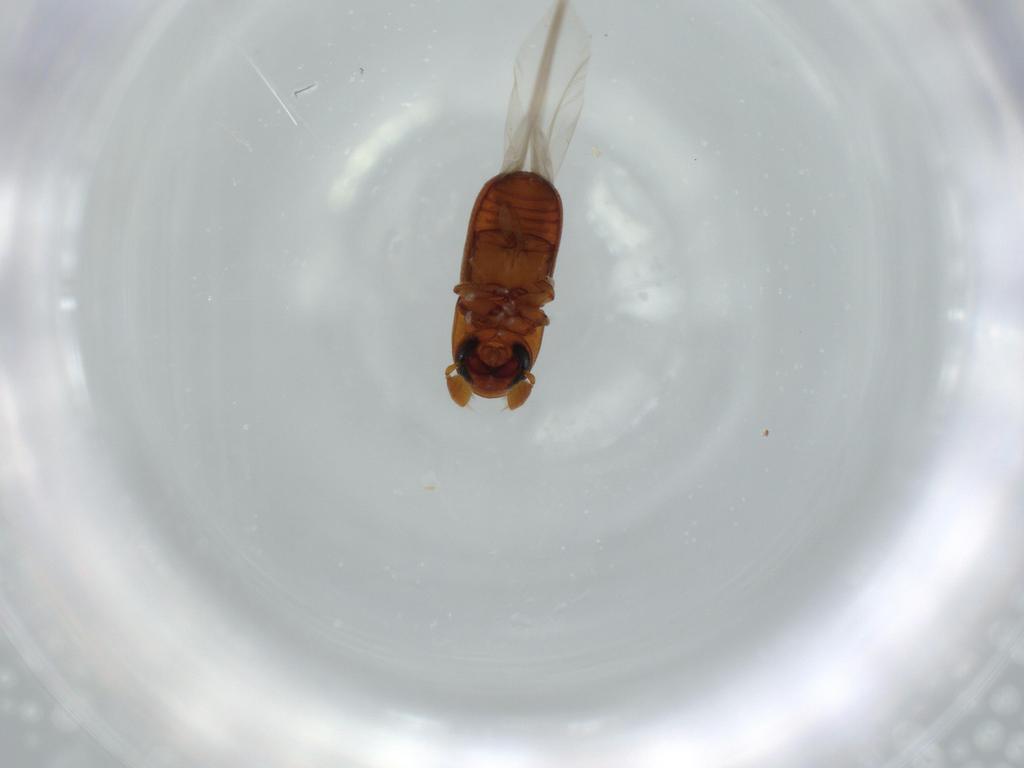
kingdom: Animalia
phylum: Arthropoda
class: Insecta
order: Coleoptera
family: Curculionidae
